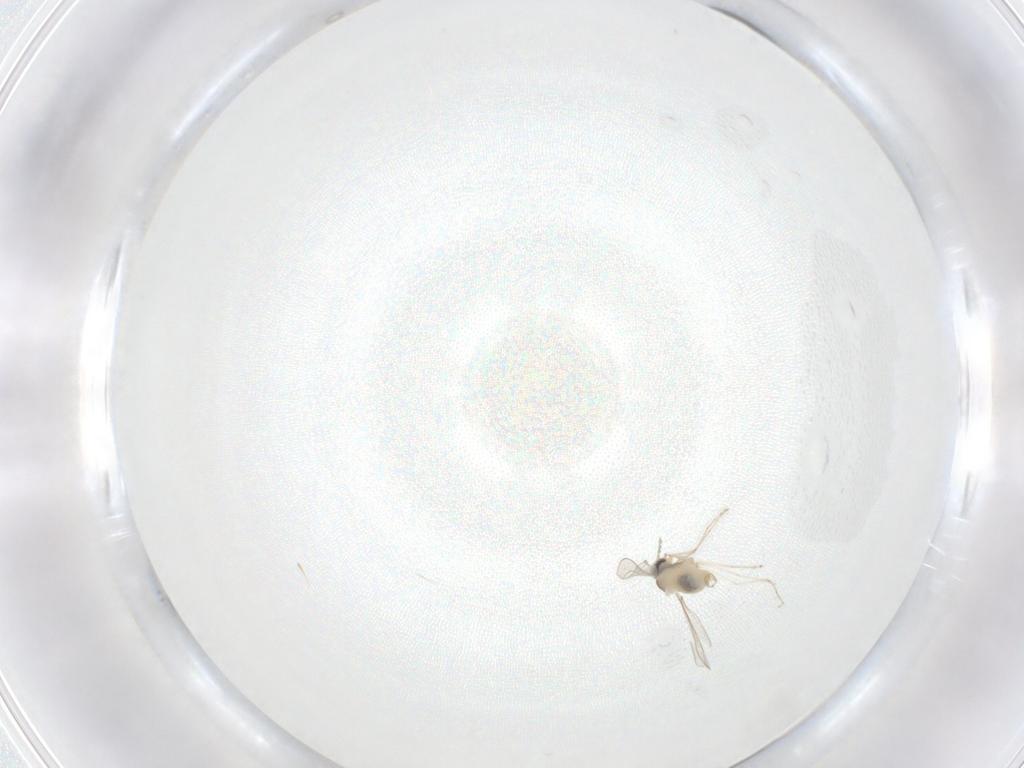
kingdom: Animalia
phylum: Arthropoda
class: Insecta
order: Diptera
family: Cecidomyiidae
